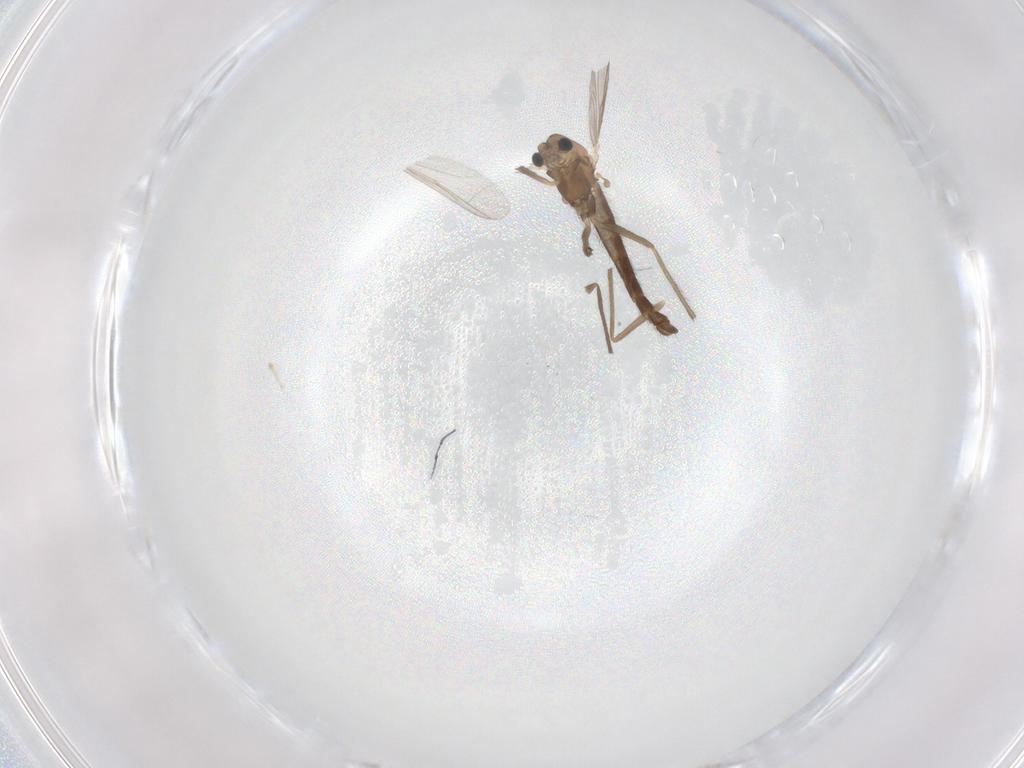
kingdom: Animalia
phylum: Arthropoda
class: Insecta
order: Diptera
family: Chironomidae
